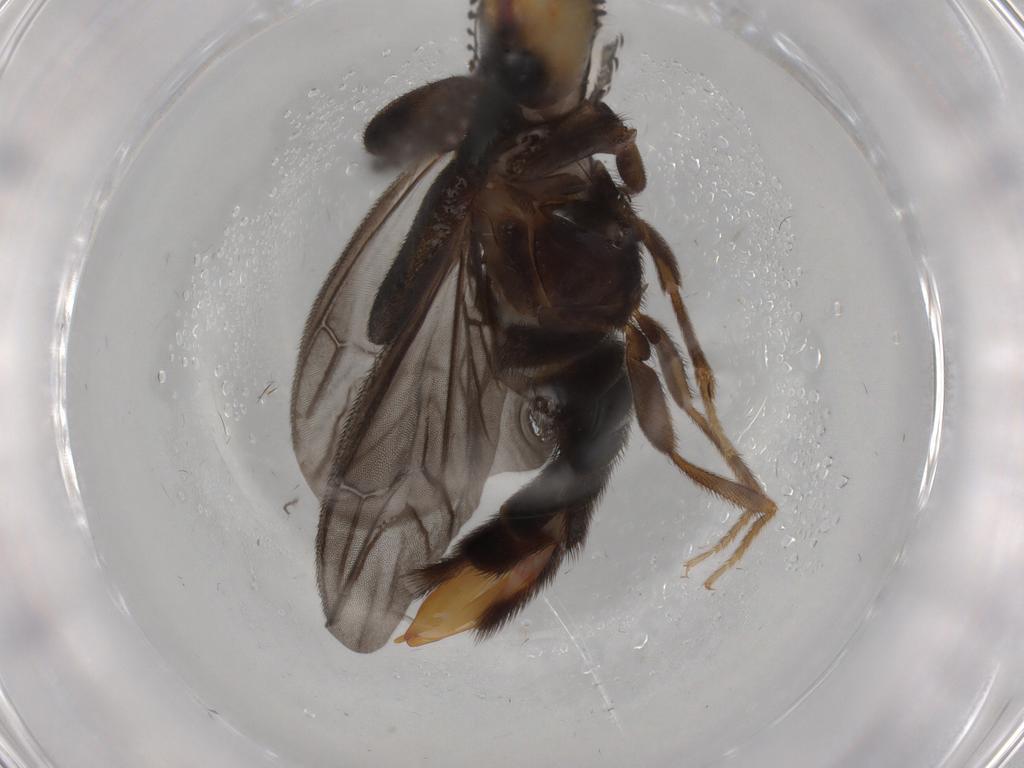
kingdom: Animalia
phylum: Arthropoda
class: Insecta
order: Coleoptera
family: Phengodidae
